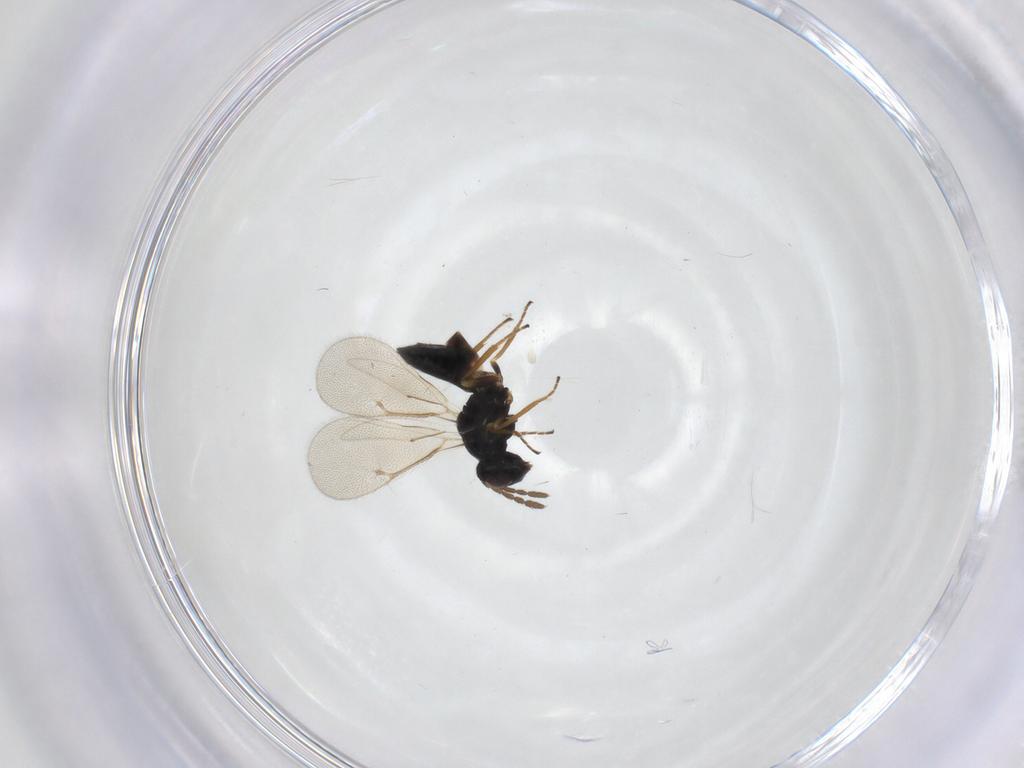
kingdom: Animalia
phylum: Arthropoda
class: Insecta
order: Hymenoptera
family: Eulophidae
